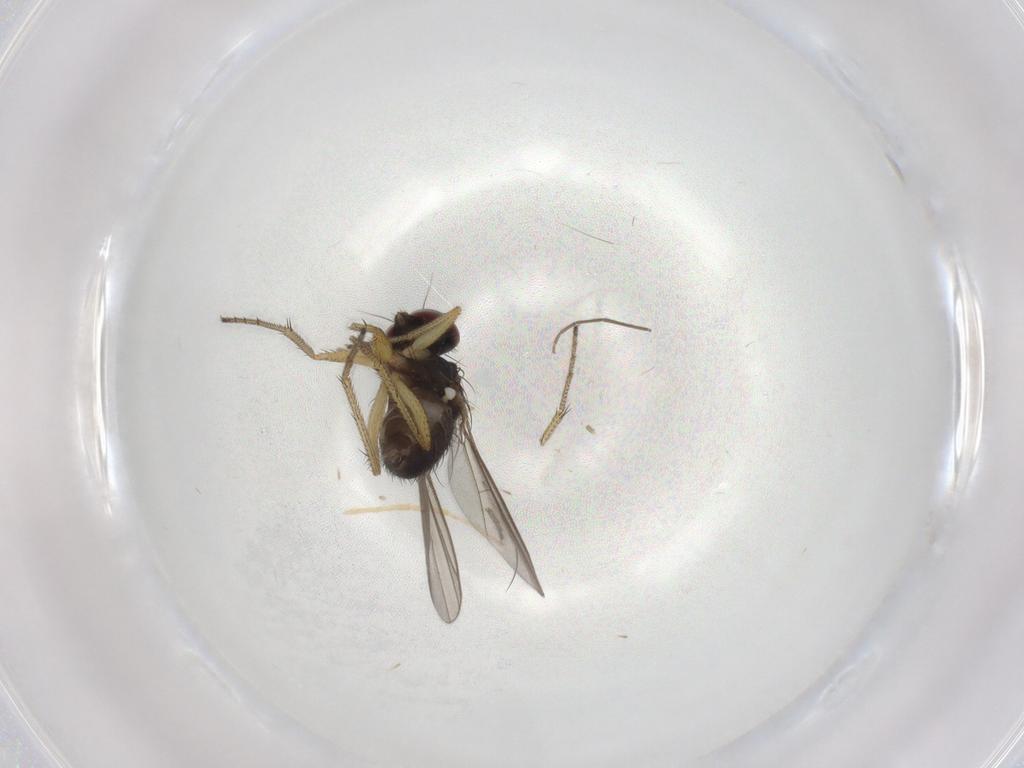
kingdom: Animalia
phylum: Arthropoda
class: Insecta
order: Diptera
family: Chironomidae
